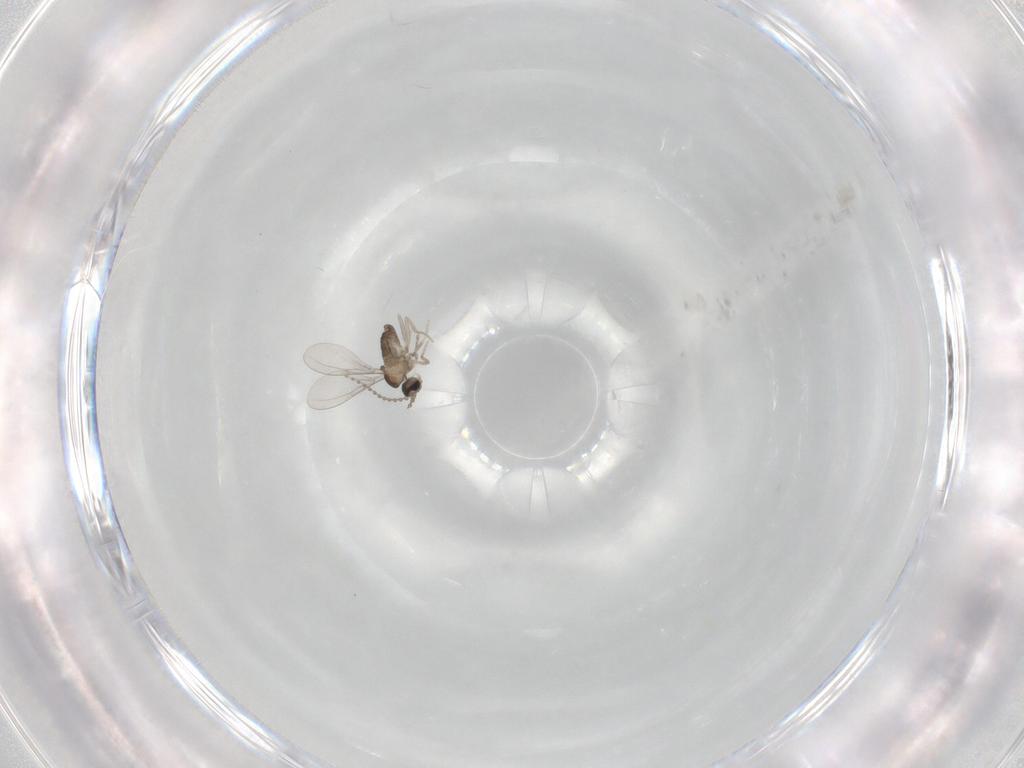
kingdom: Animalia
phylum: Arthropoda
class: Insecta
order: Diptera
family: Cecidomyiidae
